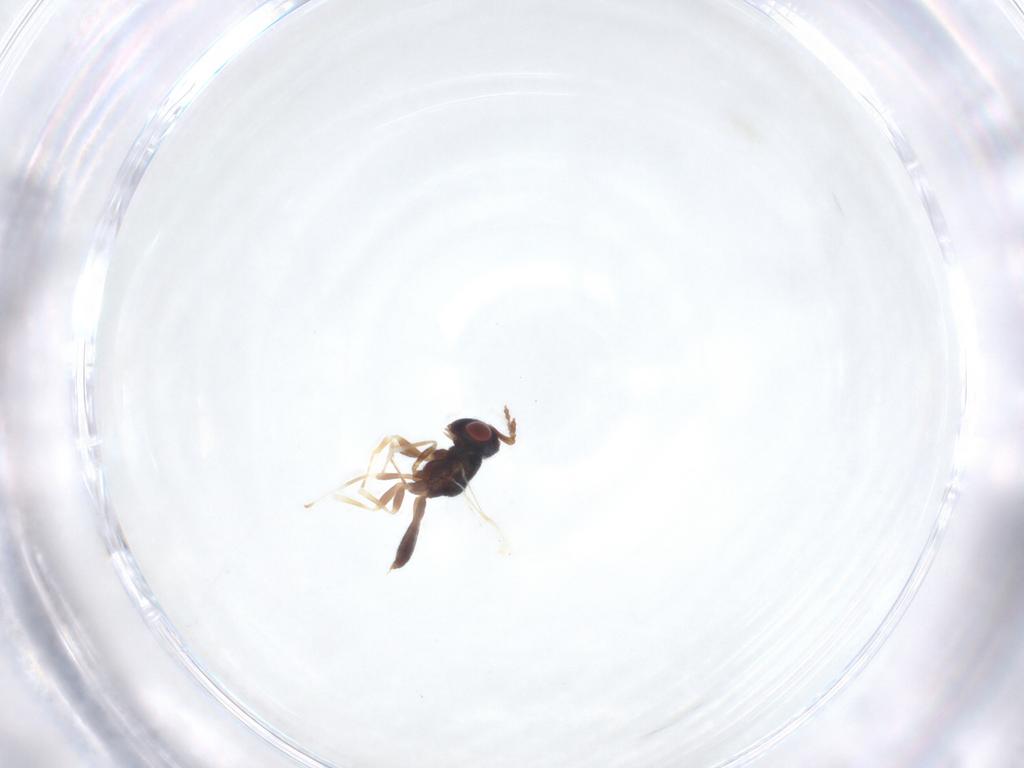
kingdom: Animalia
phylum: Arthropoda
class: Insecta
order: Hymenoptera
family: Pteromalidae
